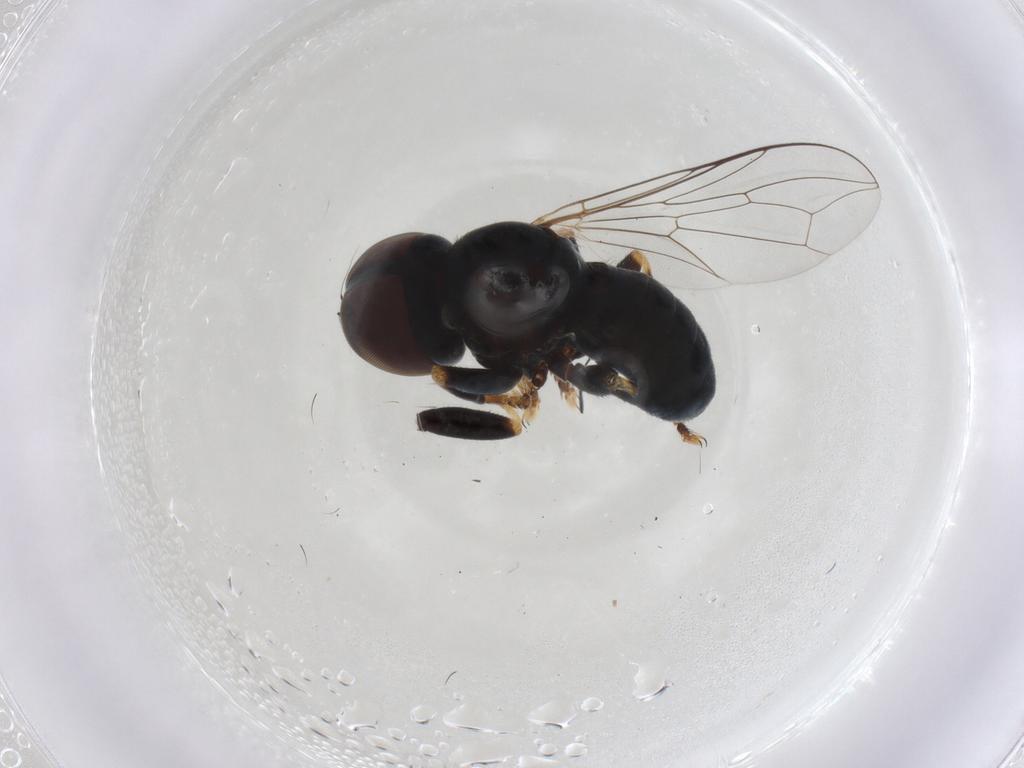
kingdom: Animalia
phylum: Arthropoda
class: Insecta
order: Diptera
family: Pipunculidae
